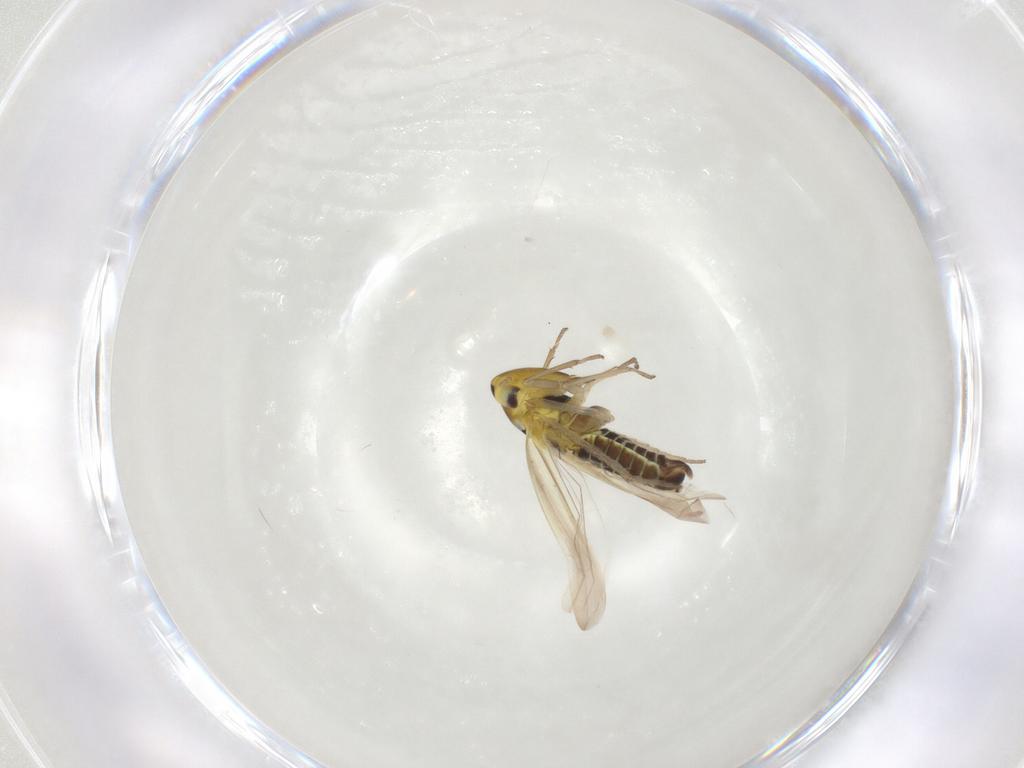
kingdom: Animalia
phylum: Arthropoda
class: Insecta
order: Hemiptera
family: Cicadellidae
